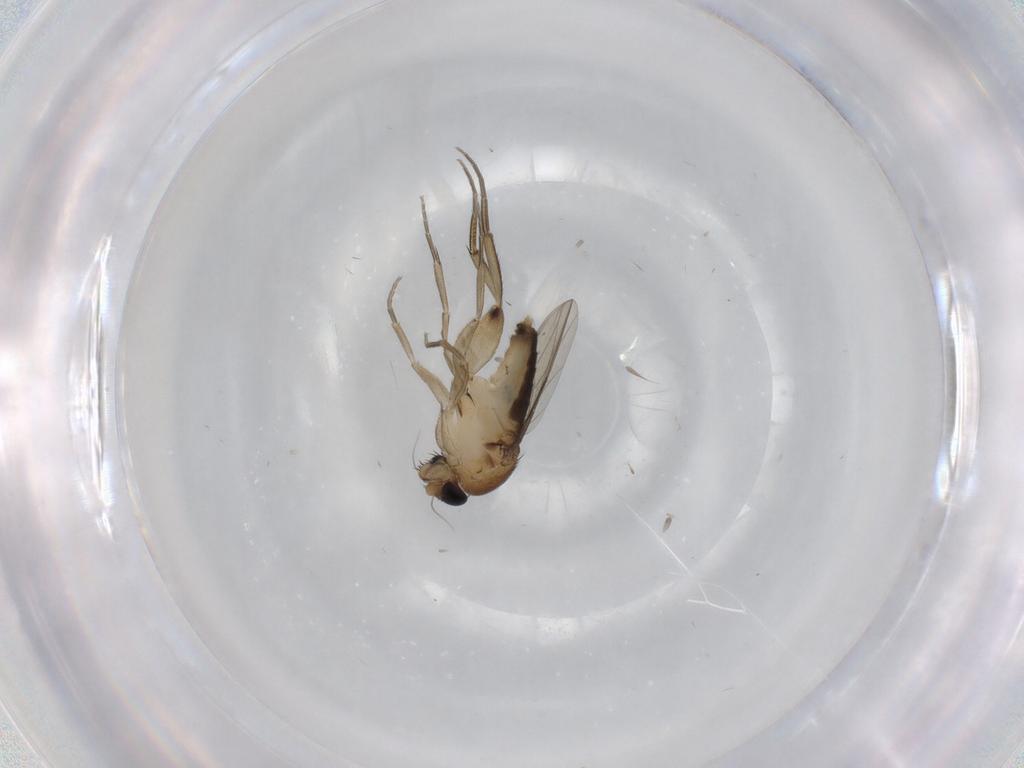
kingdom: Animalia
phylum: Arthropoda
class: Insecta
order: Diptera
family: Phoridae
